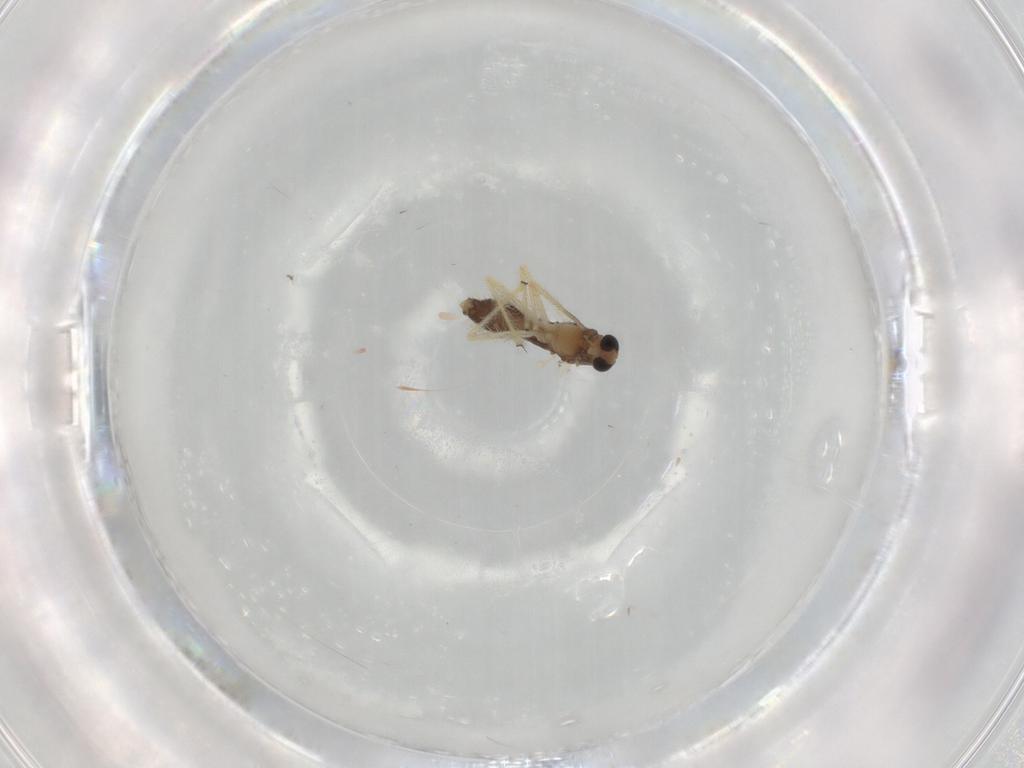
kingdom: Animalia
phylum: Arthropoda
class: Insecta
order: Diptera
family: Chironomidae
